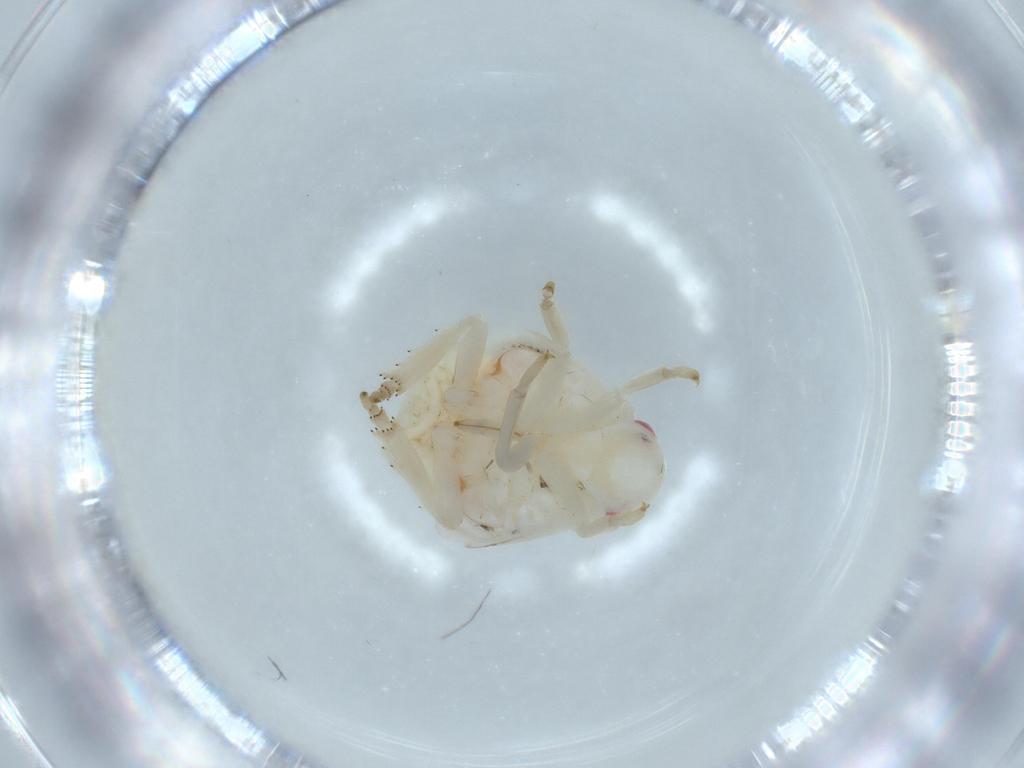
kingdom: Animalia
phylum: Arthropoda
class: Insecta
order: Hemiptera
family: Flatidae
